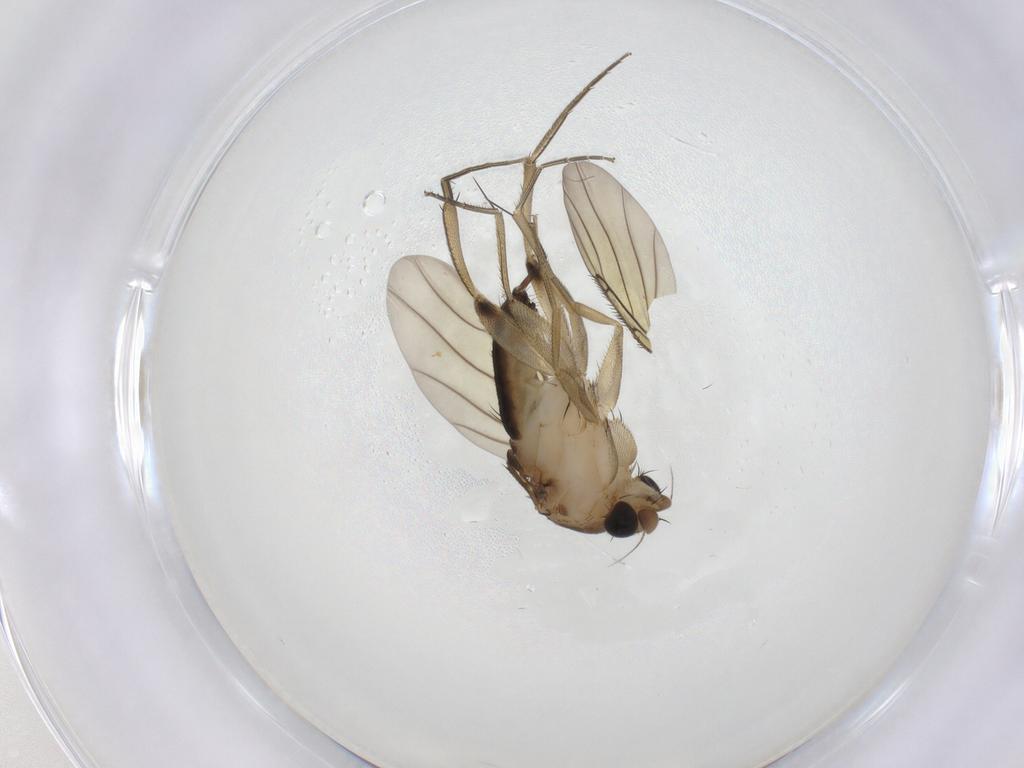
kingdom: Animalia
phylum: Arthropoda
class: Insecta
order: Diptera
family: Phoridae
